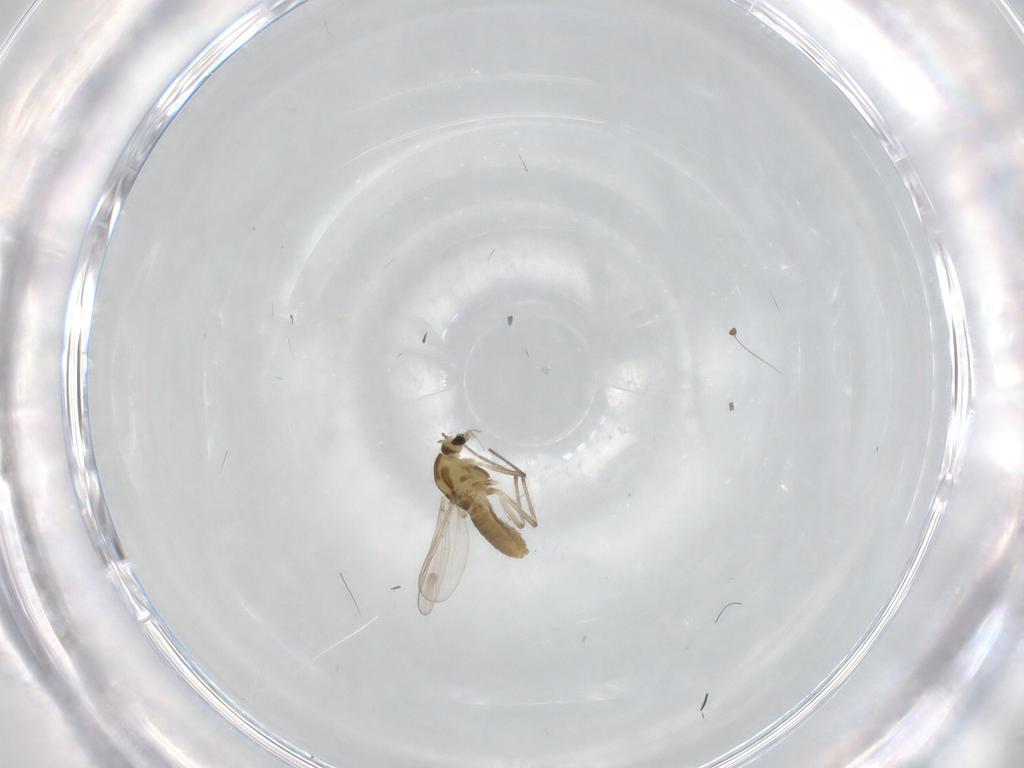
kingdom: Animalia
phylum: Arthropoda
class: Insecta
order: Diptera
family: Chironomidae
